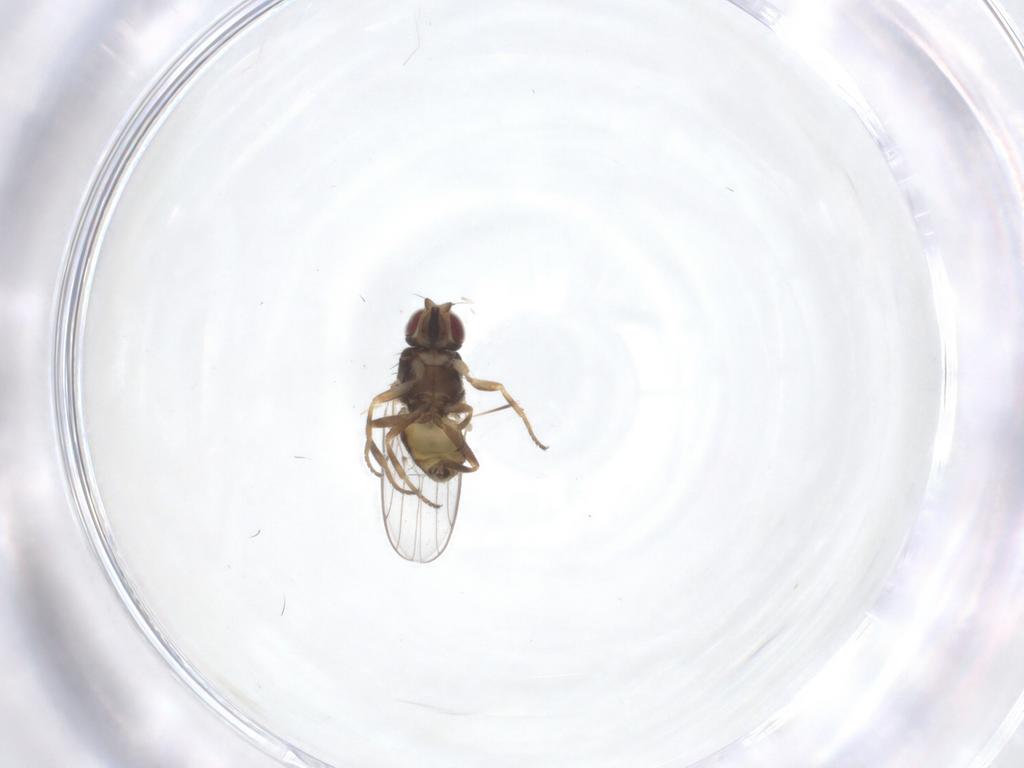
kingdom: Animalia
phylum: Arthropoda
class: Insecta
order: Diptera
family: Chloropidae
